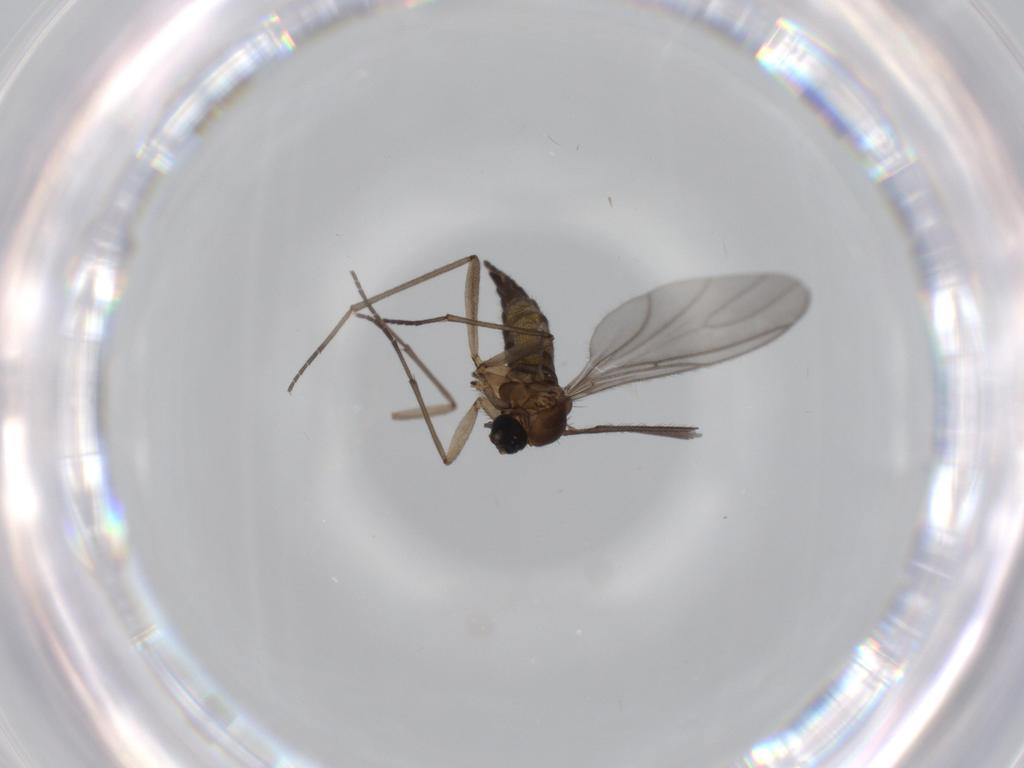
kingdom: Animalia
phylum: Arthropoda
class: Insecta
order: Diptera
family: Sciaridae
